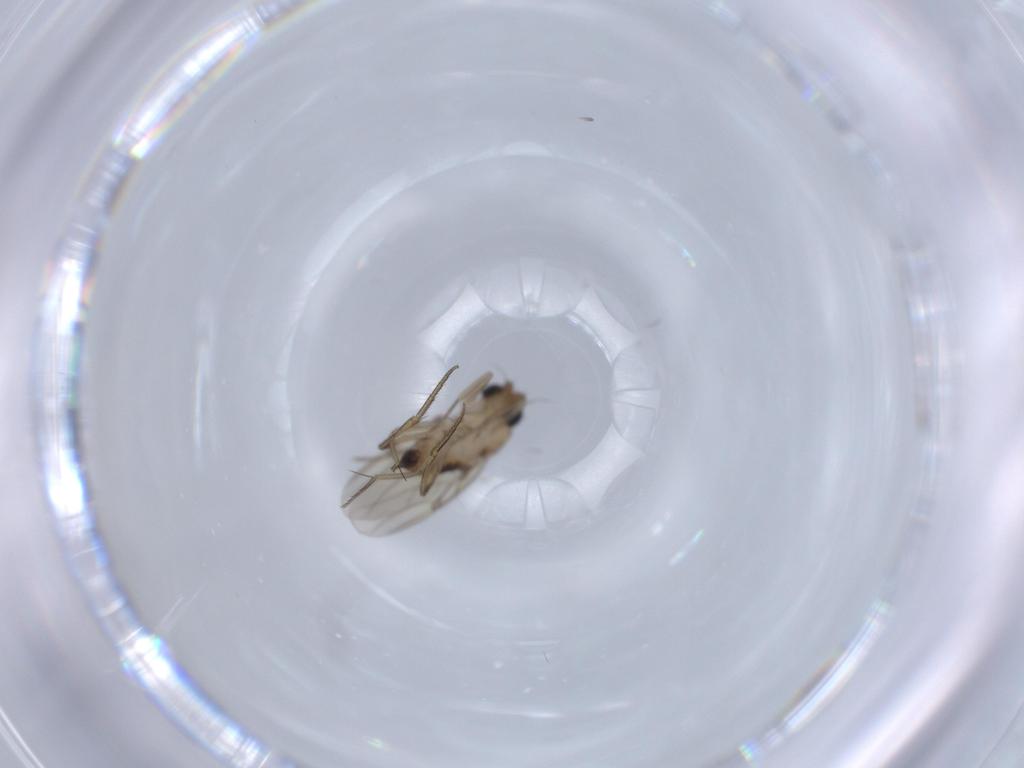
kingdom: Animalia
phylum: Arthropoda
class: Insecta
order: Diptera
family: Phoridae
